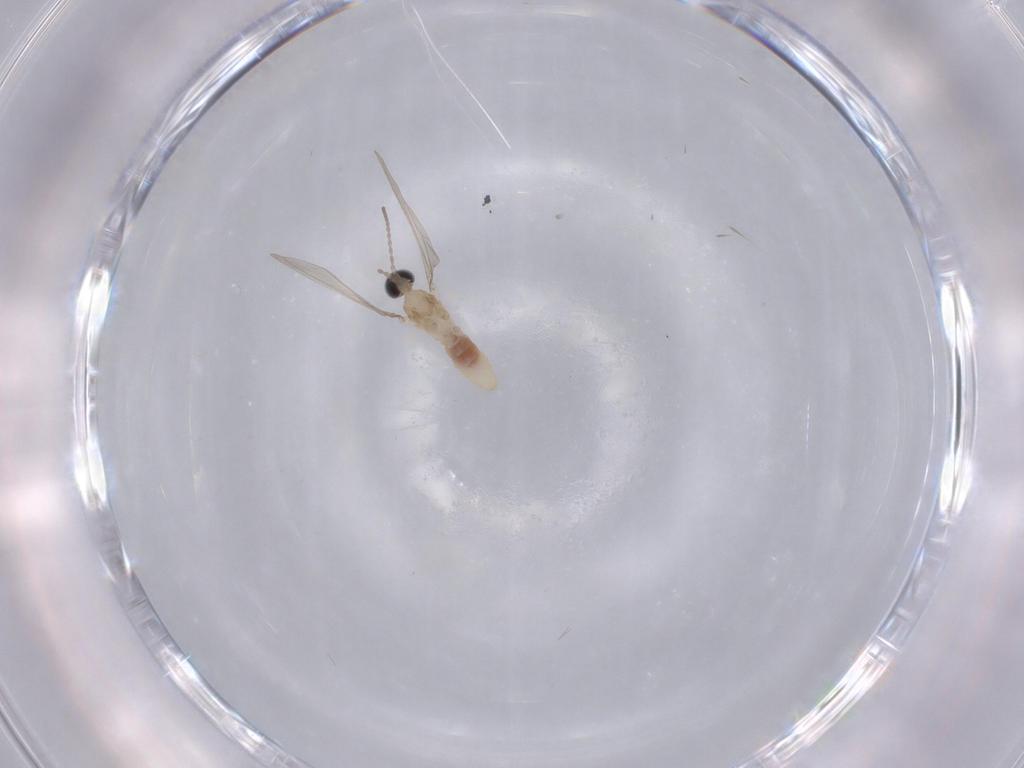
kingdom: Animalia
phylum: Arthropoda
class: Insecta
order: Diptera
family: Cecidomyiidae
